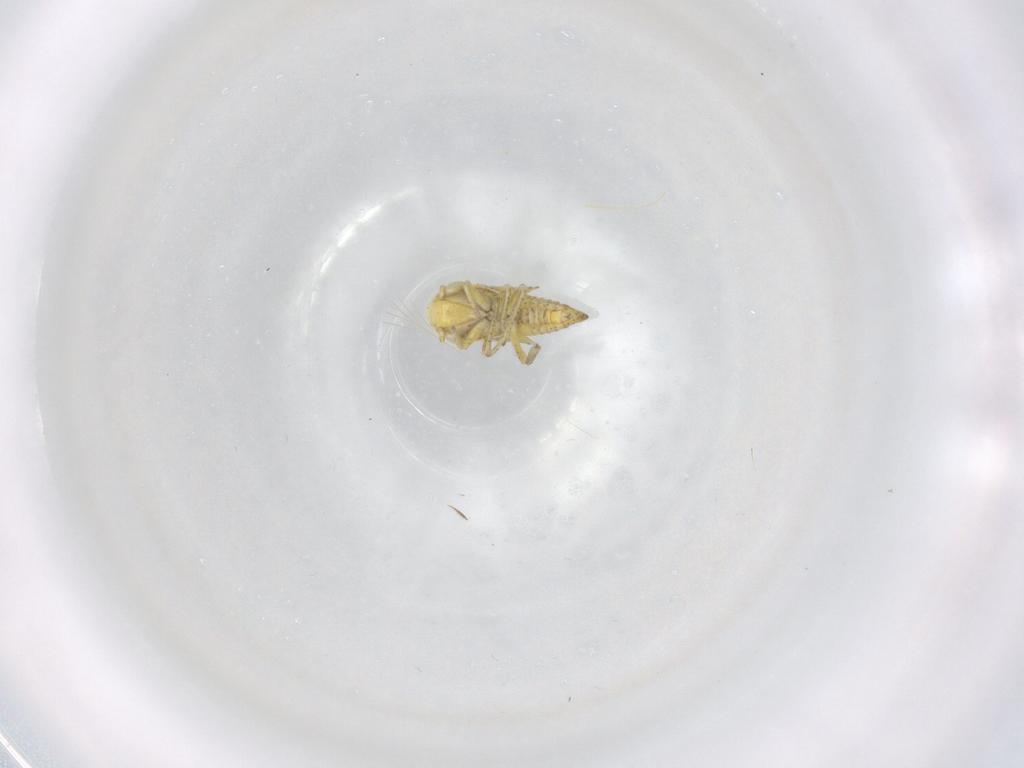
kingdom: Animalia
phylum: Arthropoda
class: Insecta
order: Hemiptera
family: Cicadellidae
